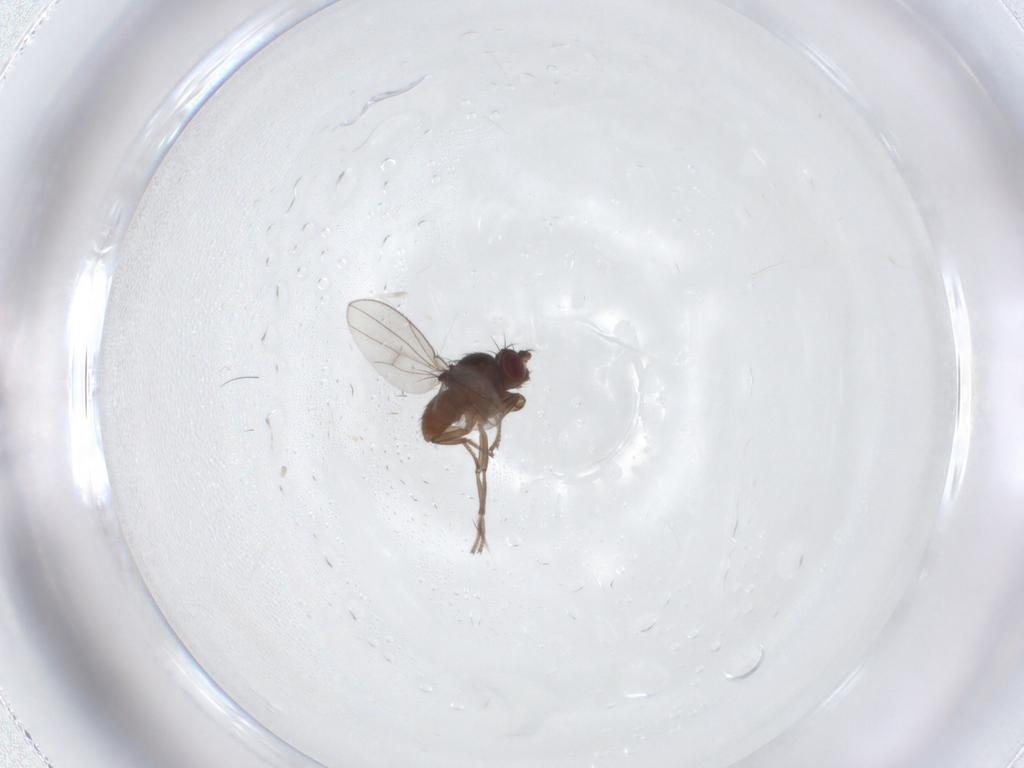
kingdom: Animalia
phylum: Arthropoda
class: Insecta
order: Diptera
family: Ephydridae
